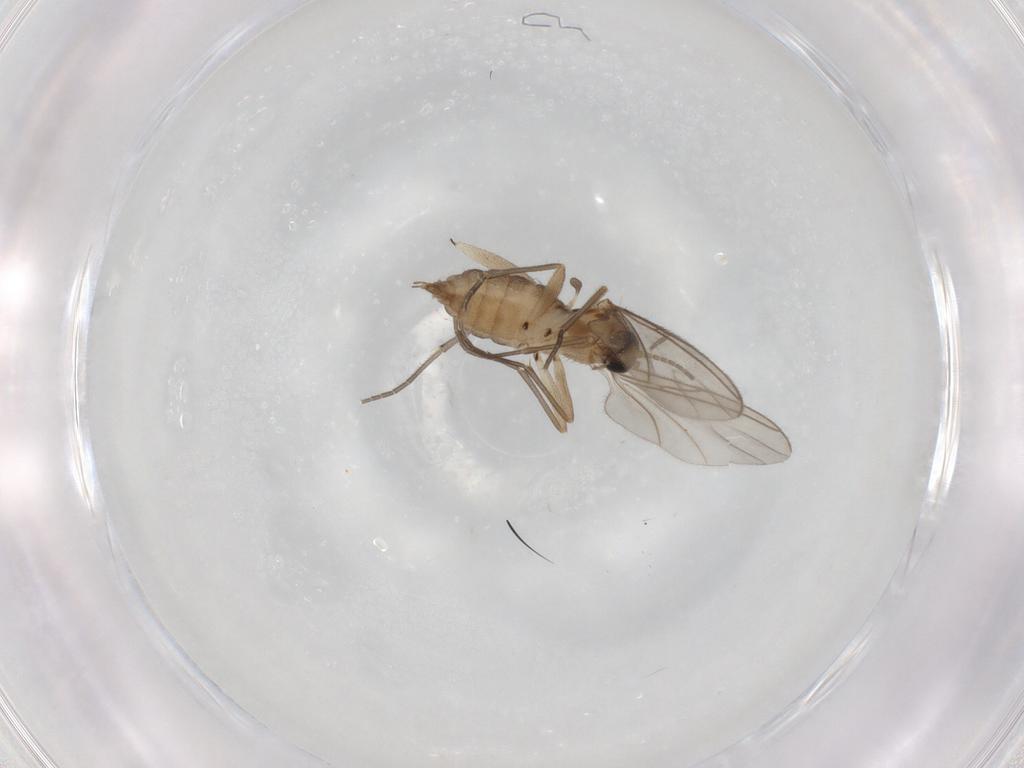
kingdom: Animalia
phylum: Arthropoda
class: Insecta
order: Diptera
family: Sciaridae
